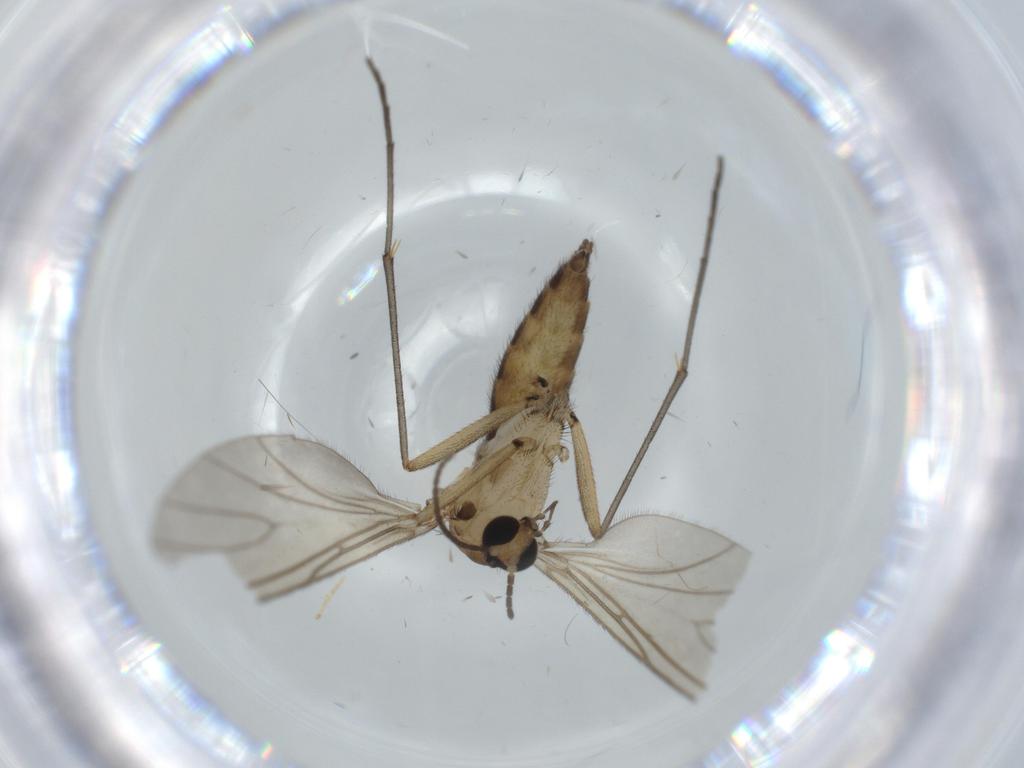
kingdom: Animalia
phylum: Arthropoda
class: Insecta
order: Diptera
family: Sciaridae
